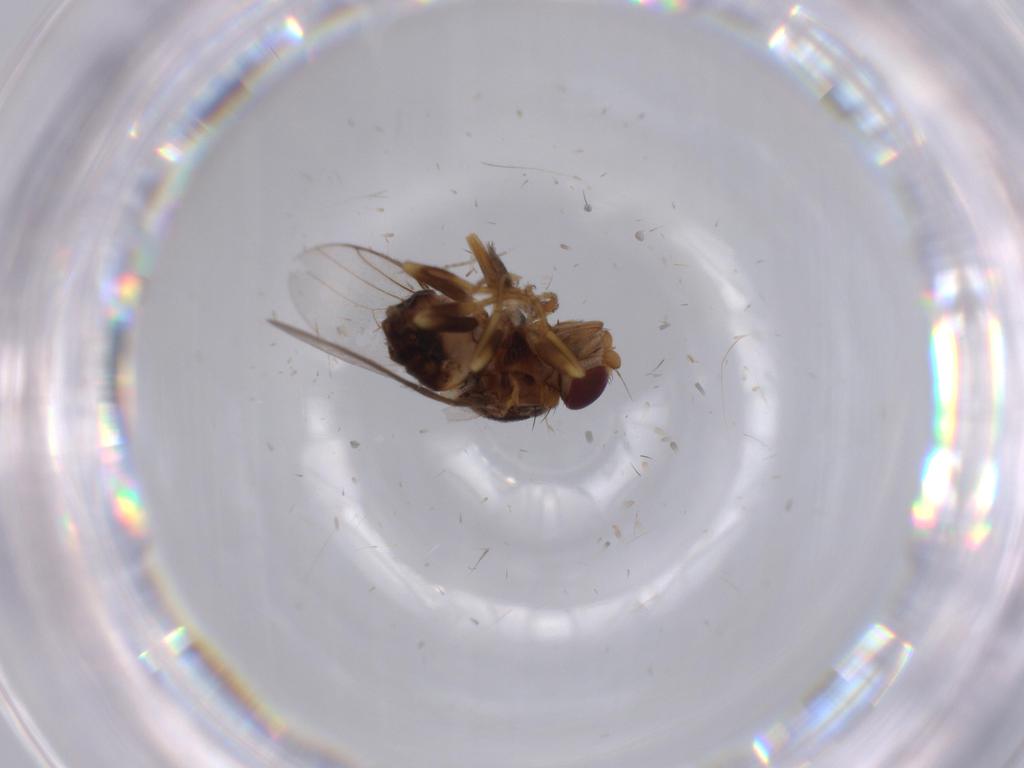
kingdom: Animalia
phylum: Arthropoda
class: Insecta
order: Diptera
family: Chloropidae
